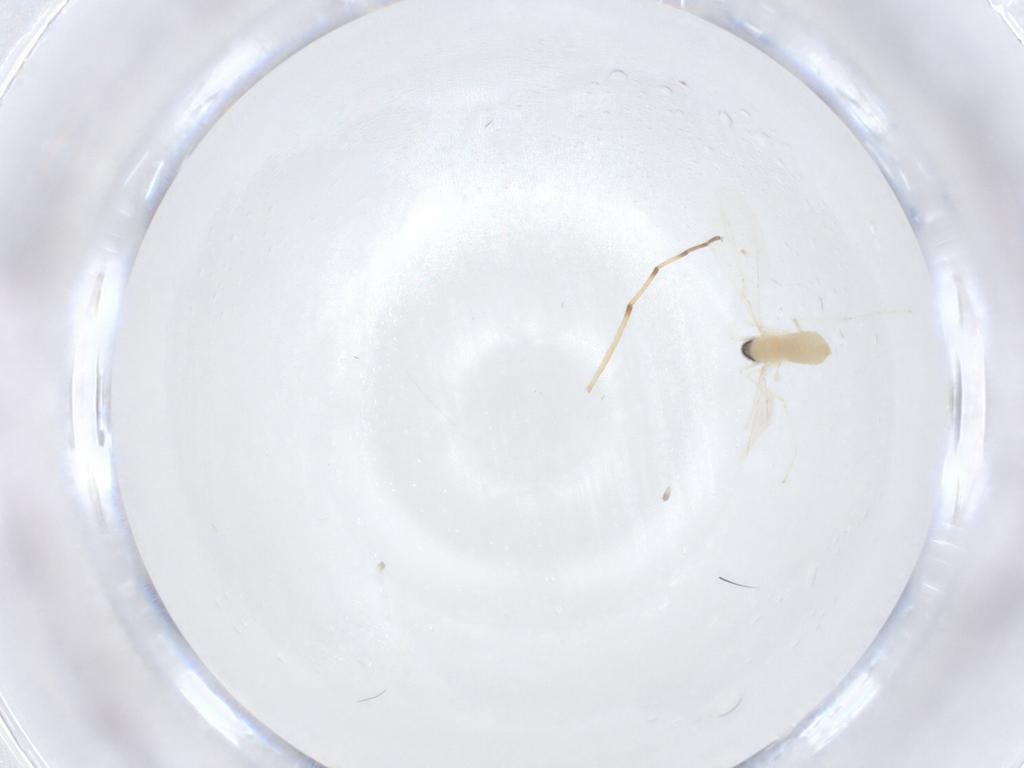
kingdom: Animalia
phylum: Arthropoda
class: Insecta
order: Diptera
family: Cecidomyiidae
